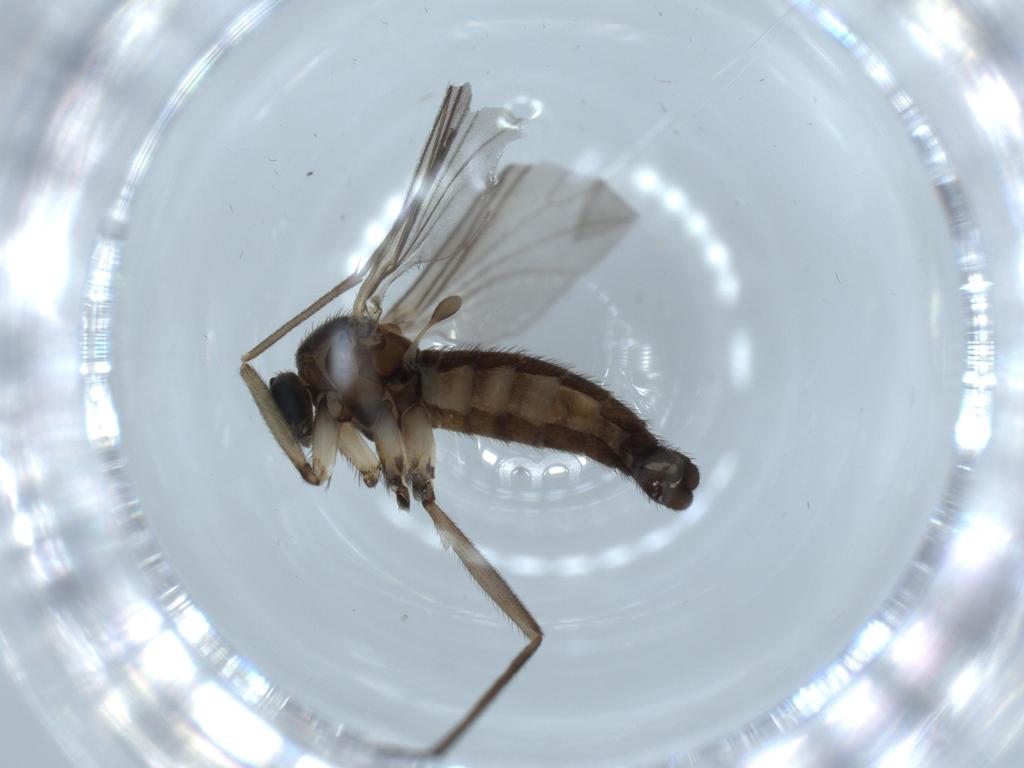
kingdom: Animalia
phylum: Arthropoda
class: Insecta
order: Diptera
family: Sciaridae
